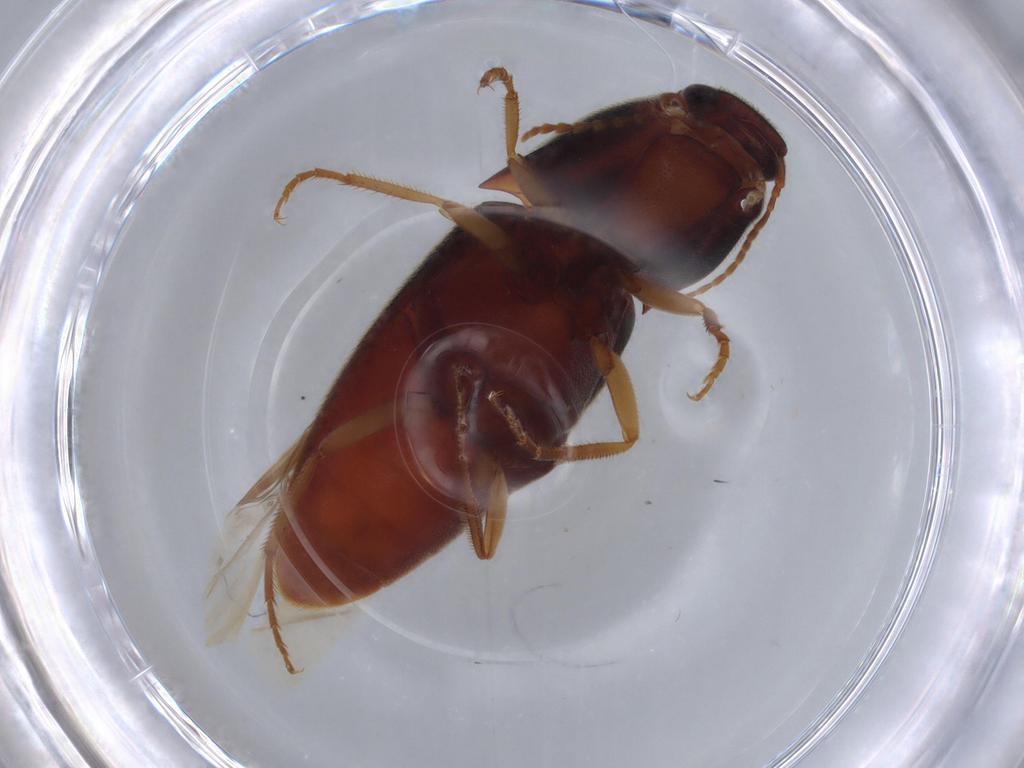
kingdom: Animalia
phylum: Arthropoda
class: Insecta
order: Coleoptera
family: Elateridae
